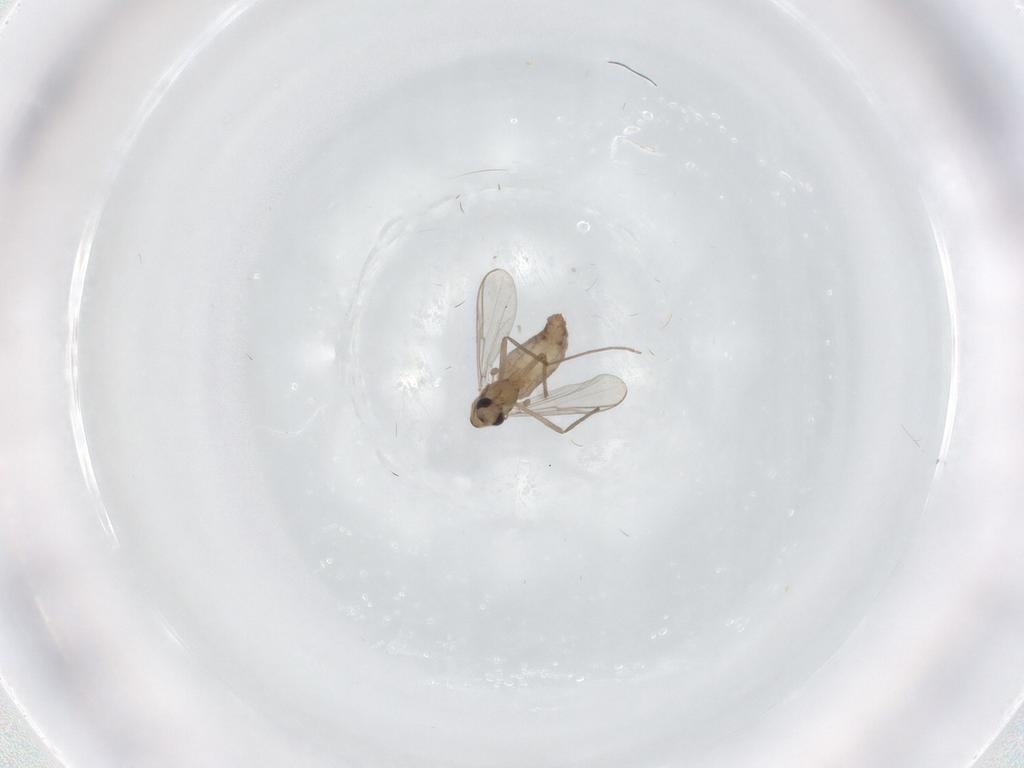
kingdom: Animalia
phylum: Arthropoda
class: Insecta
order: Diptera
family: Chironomidae
